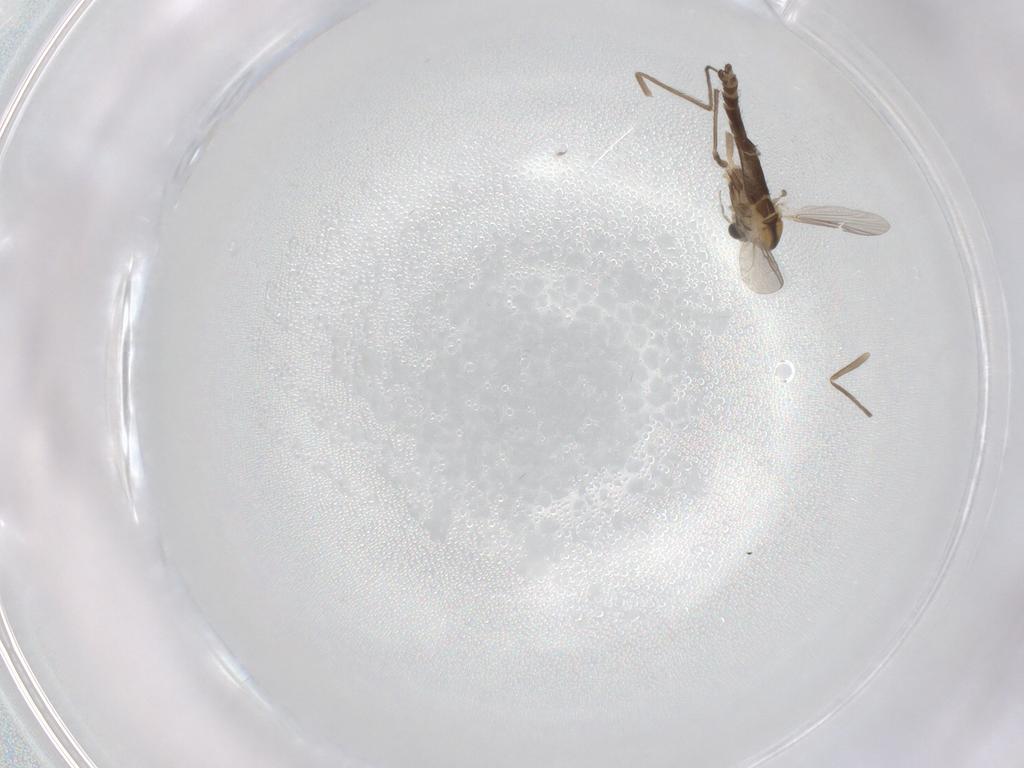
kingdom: Animalia
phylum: Arthropoda
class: Insecta
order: Diptera
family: Chironomidae
